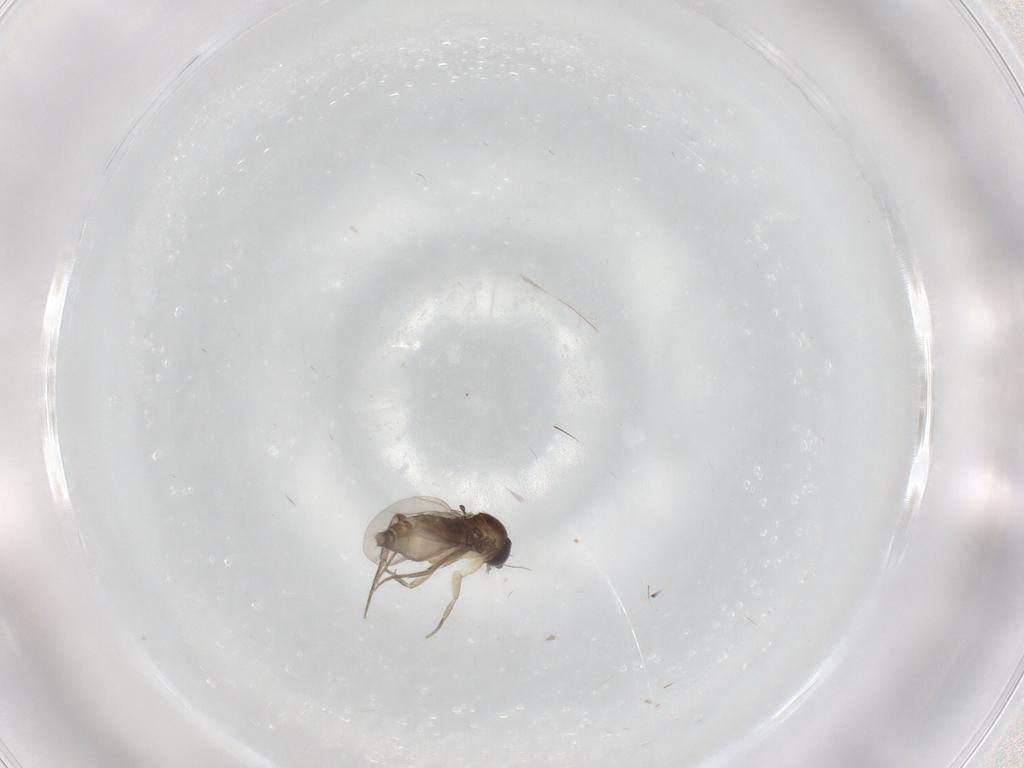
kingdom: Animalia
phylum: Arthropoda
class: Insecta
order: Diptera
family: Phoridae
